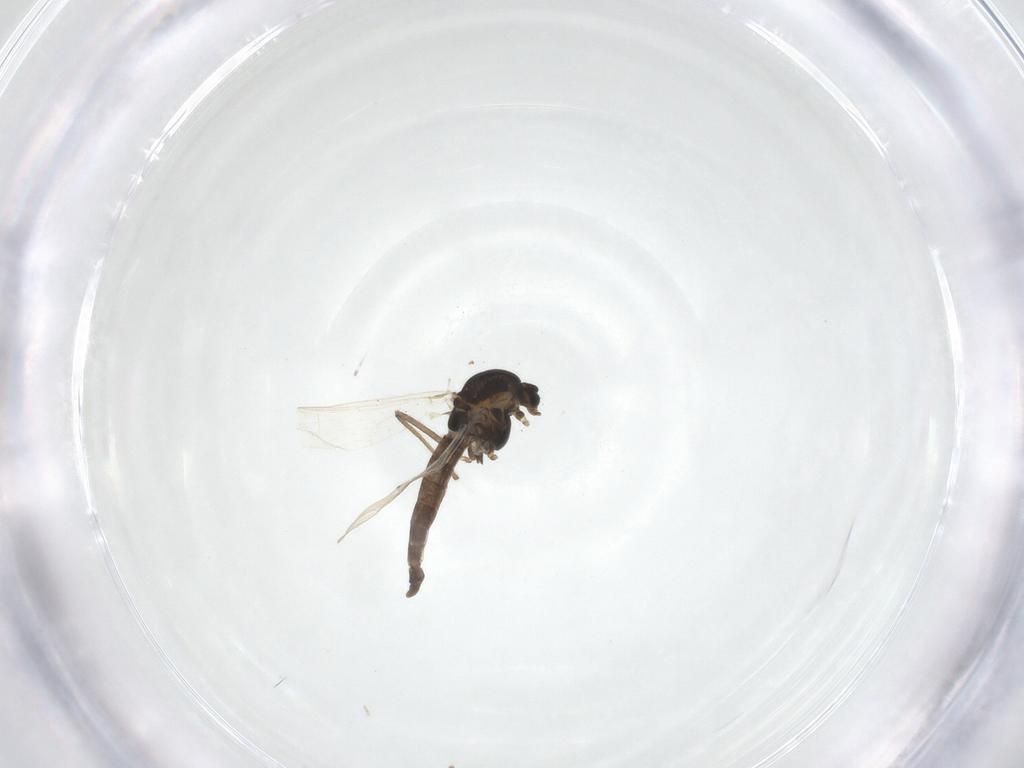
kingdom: Animalia
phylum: Arthropoda
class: Insecta
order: Diptera
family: Chironomidae
